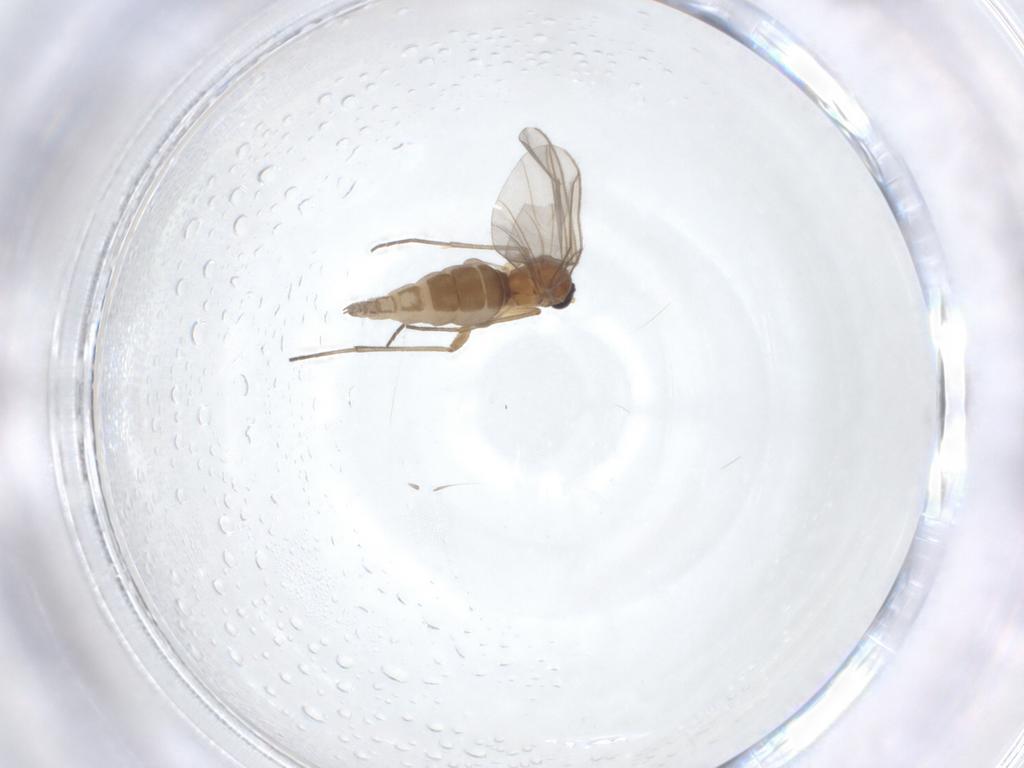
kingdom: Animalia
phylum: Arthropoda
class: Insecta
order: Diptera
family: Sciaridae
